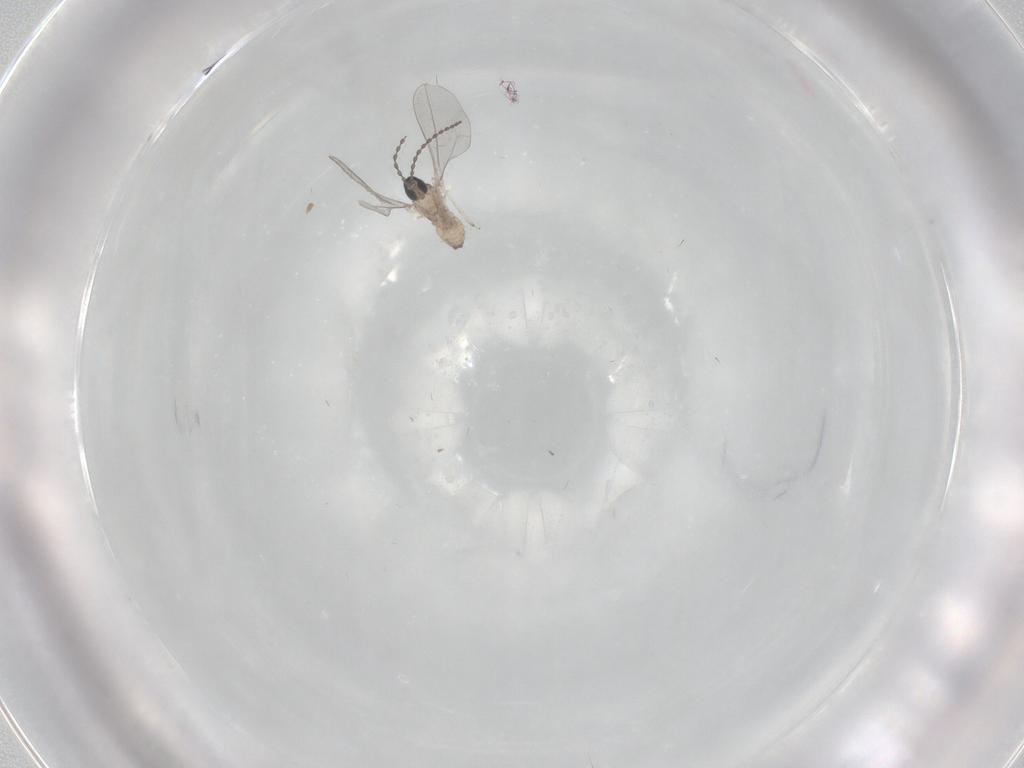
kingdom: Animalia
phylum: Arthropoda
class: Insecta
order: Diptera
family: Cecidomyiidae
